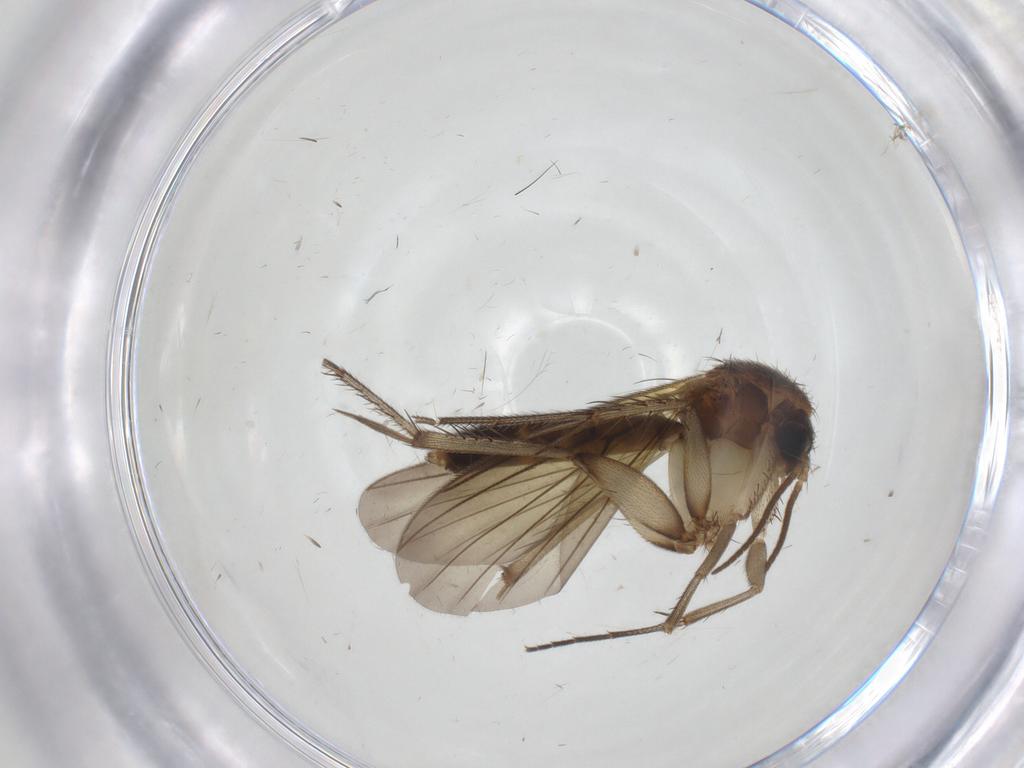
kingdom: Animalia
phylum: Arthropoda
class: Insecta
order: Diptera
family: Mycetophilidae
